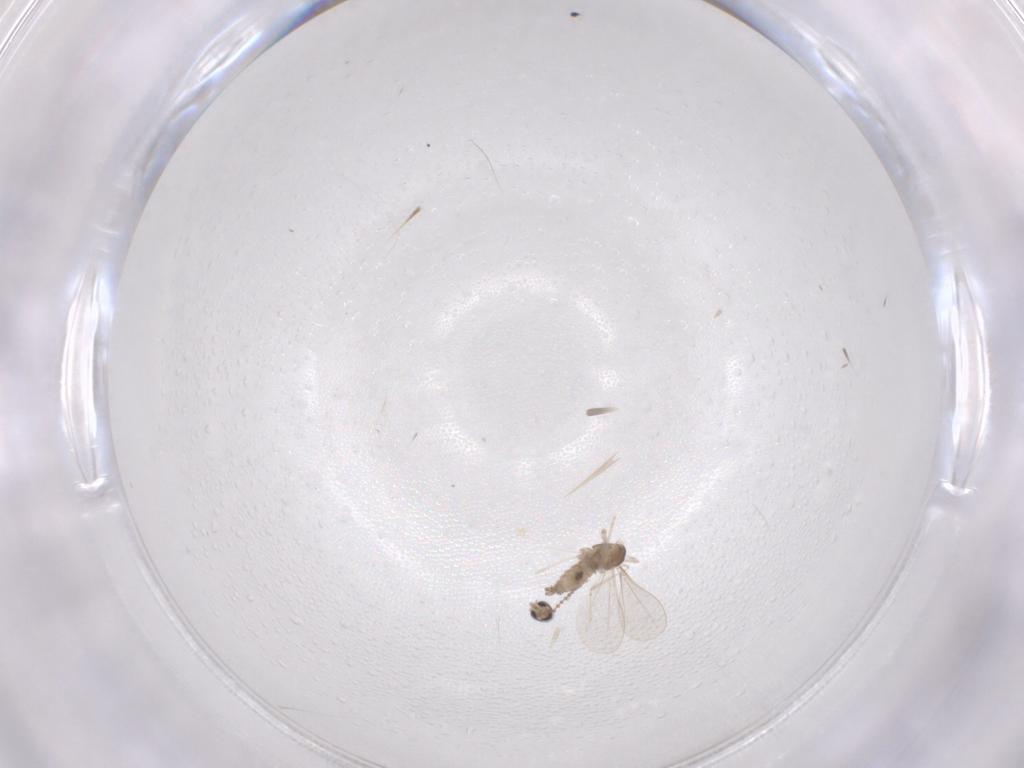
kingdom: Animalia
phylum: Arthropoda
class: Insecta
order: Diptera
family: Cecidomyiidae
